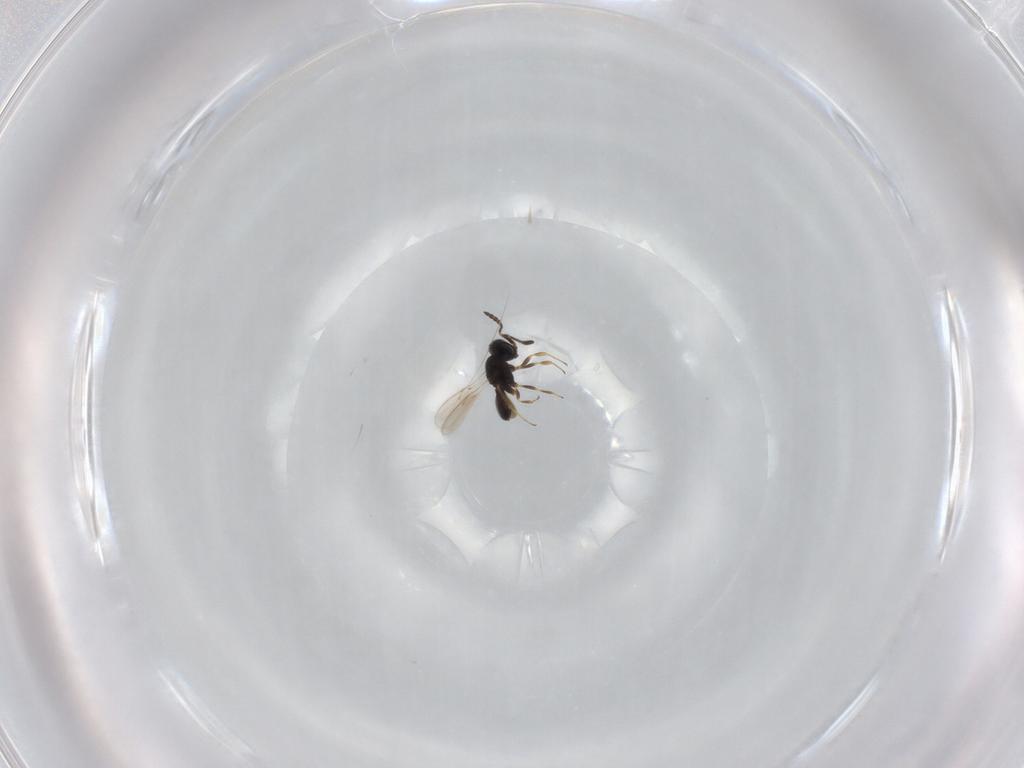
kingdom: Animalia
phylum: Arthropoda
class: Insecta
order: Hymenoptera
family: Scelionidae
